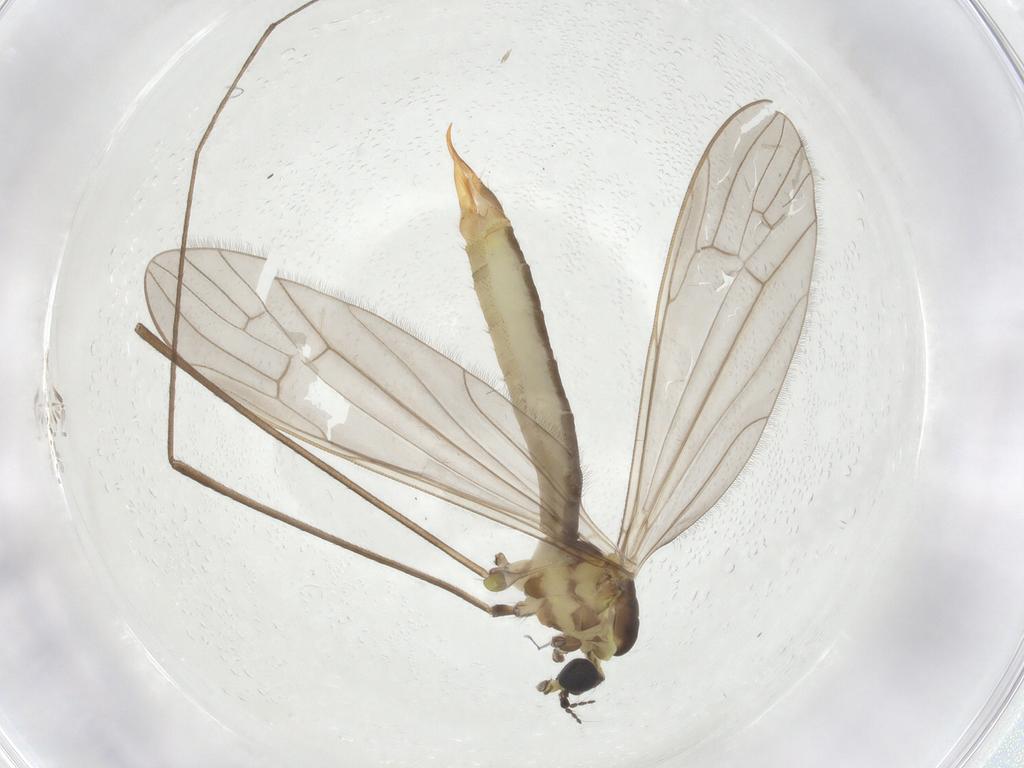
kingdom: Animalia
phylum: Arthropoda
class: Insecta
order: Diptera
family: Limoniidae
